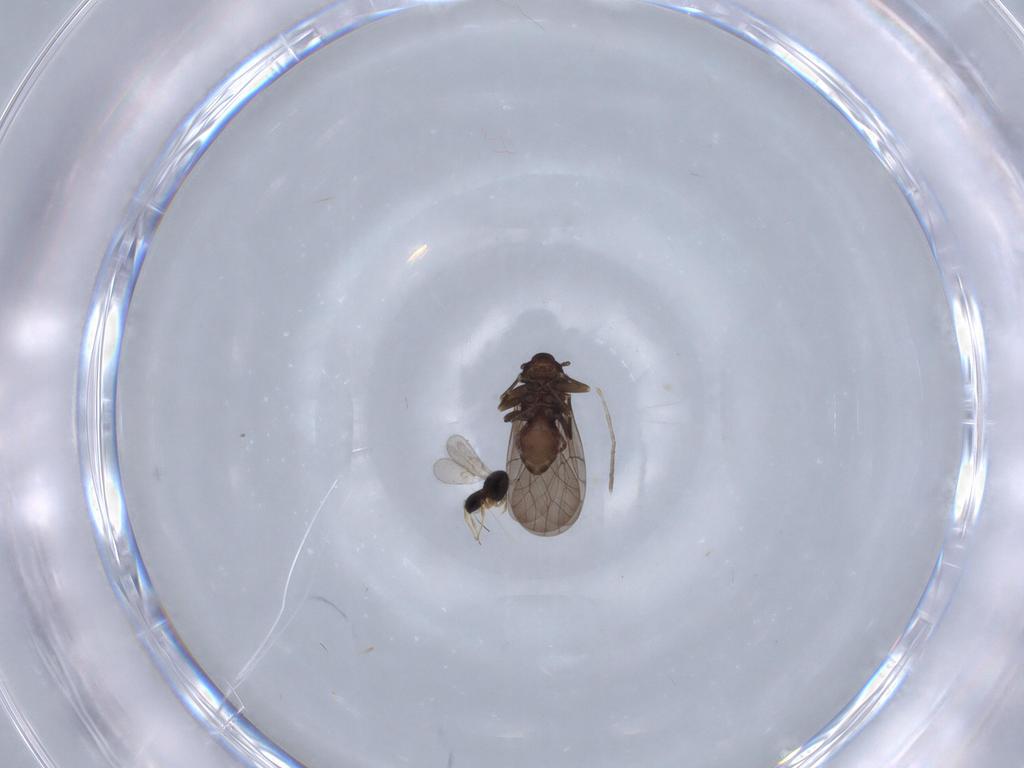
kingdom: Animalia
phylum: Arthropoda
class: Insecta
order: Hymenoptera
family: Scelionidae
